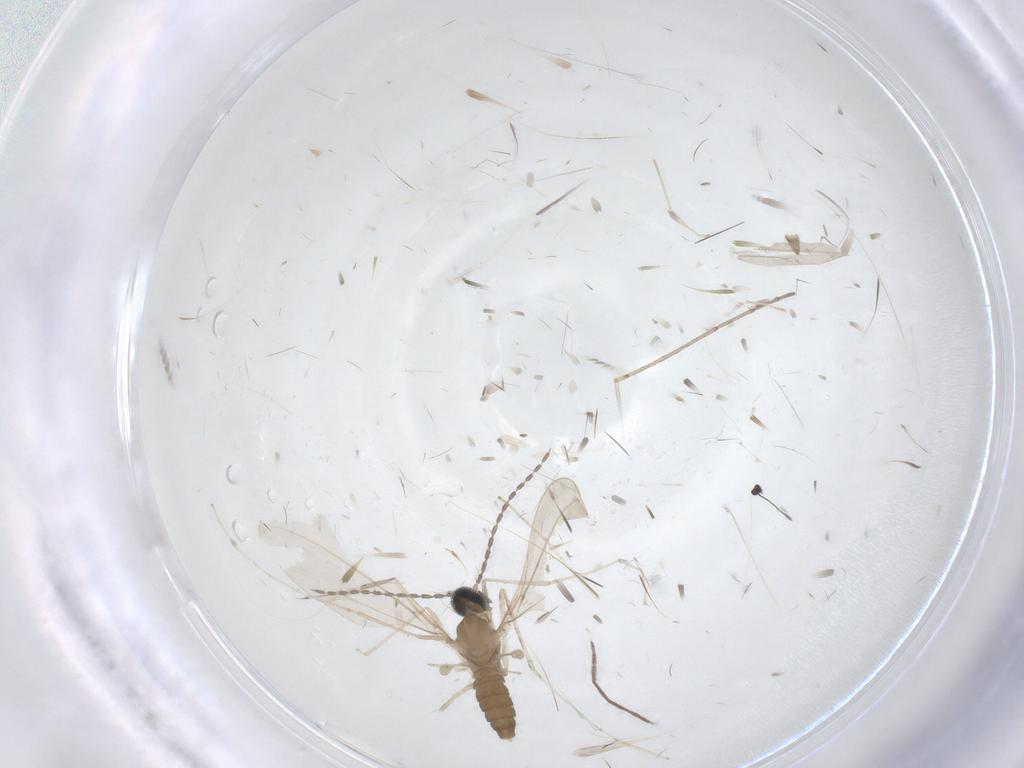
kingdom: Animalia
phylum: Arthropoda
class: Insecta
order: Diptera
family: Cecidomyiidae
